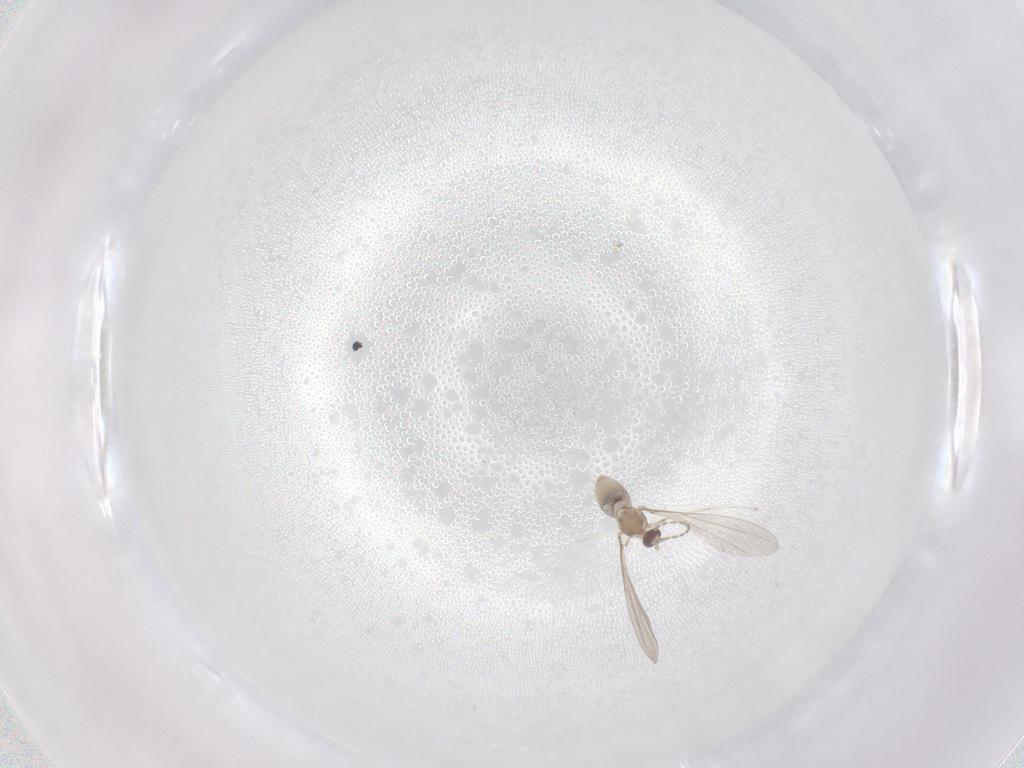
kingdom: Animalia
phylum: Arthropoda
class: Insecta
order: Diptera
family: Cecidomyiidae
